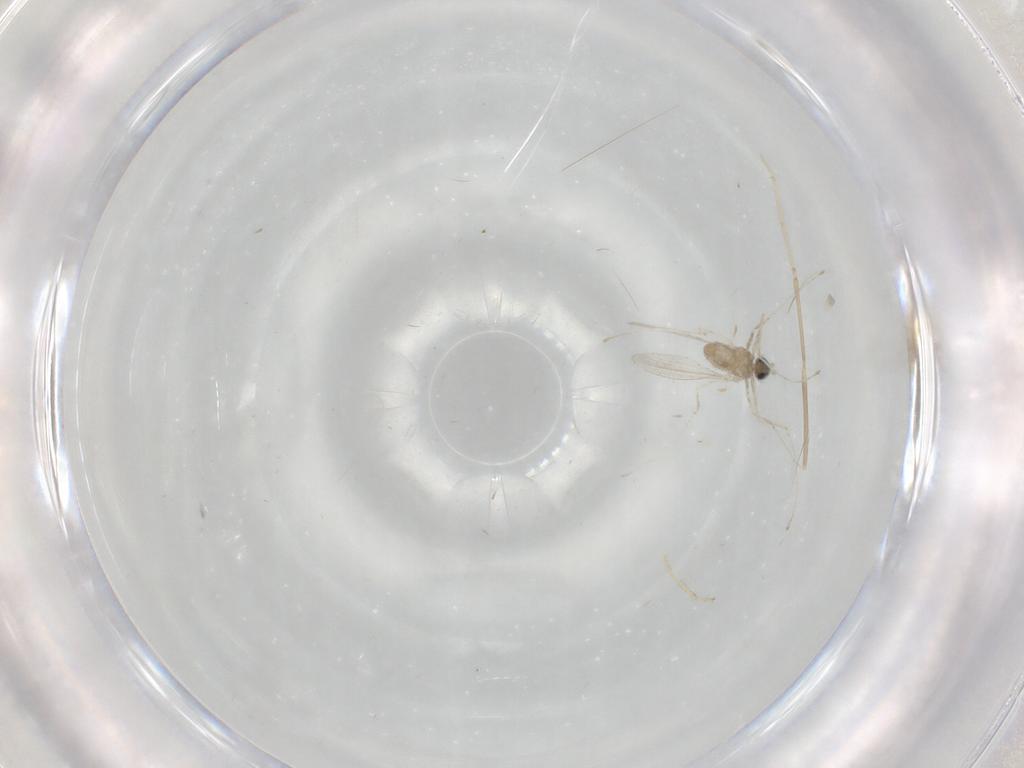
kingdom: Animalia
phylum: Arthropoda
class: Insecta
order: Diptera
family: Cecidomyiidae
